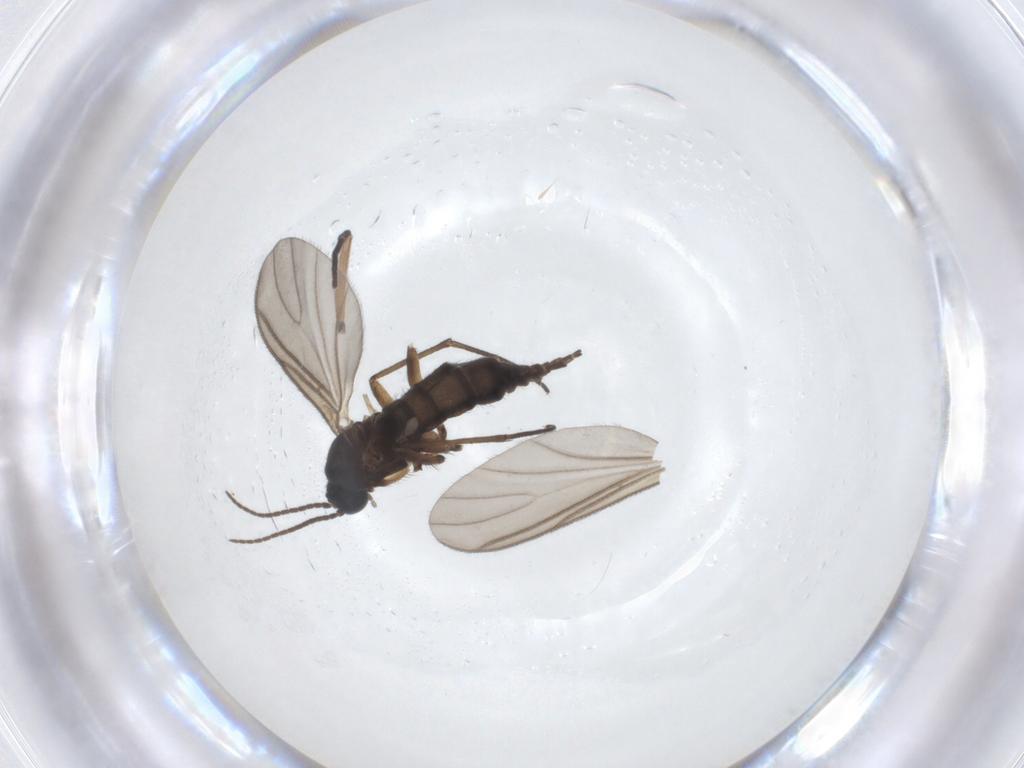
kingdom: Animalia
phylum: Arthropoda
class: Insecta
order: Diptera
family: Sciaridae
